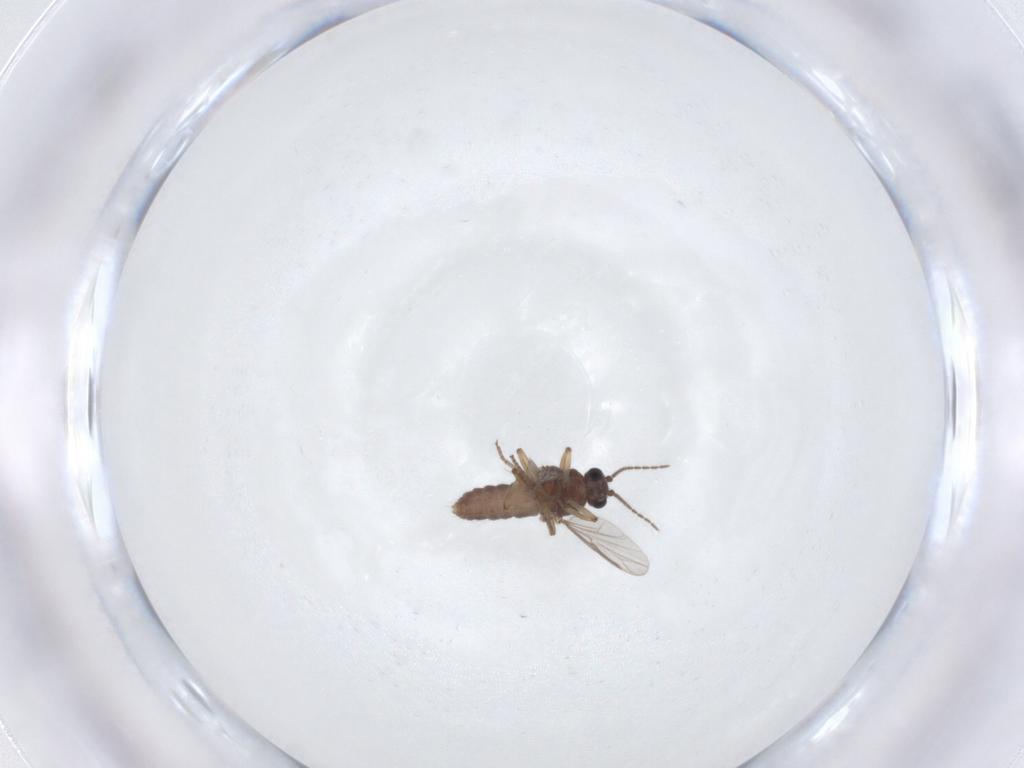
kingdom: Animalia
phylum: Arthropoda
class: Insecta
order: Diptera
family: Ceratopogonidae
